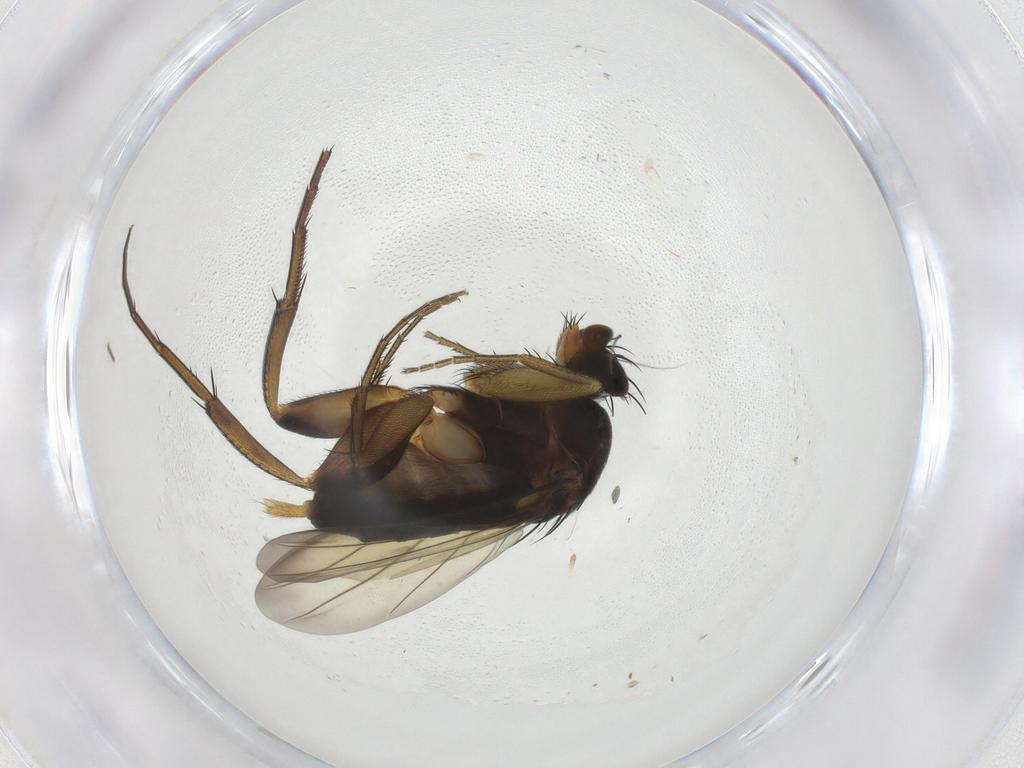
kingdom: Animalia
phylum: Arthropoda
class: Insecta
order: Diptera
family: Phoridae
